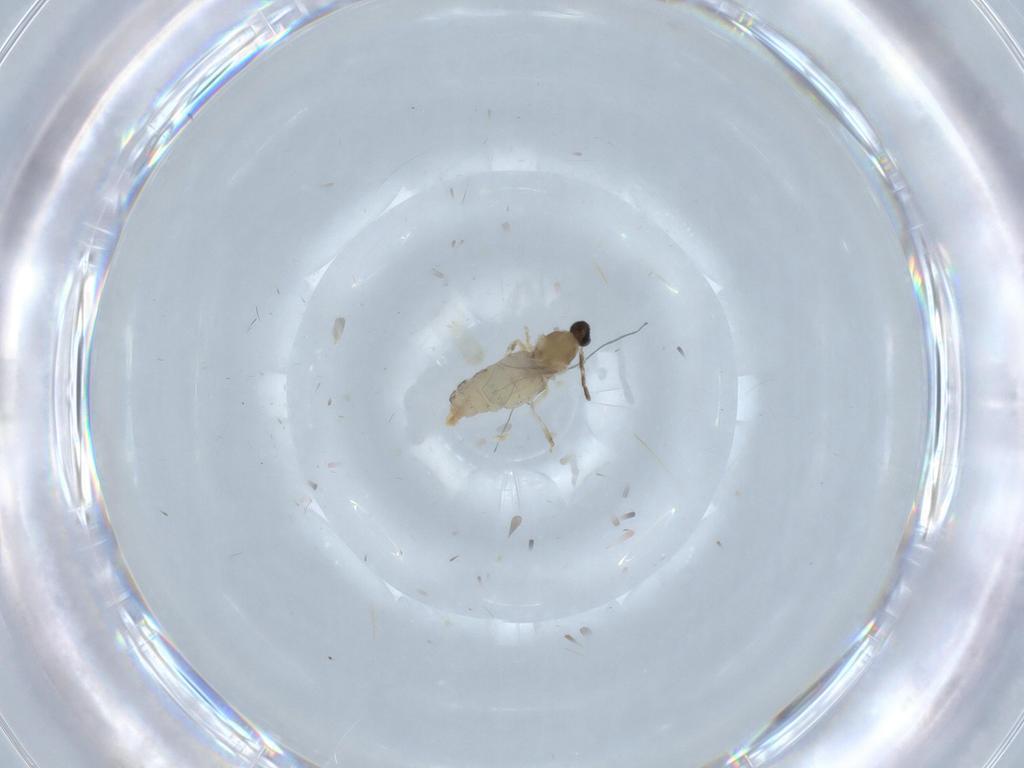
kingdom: Animalia
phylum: Arthropoda
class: Insecta
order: Diptera
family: Cecidomyiidae
